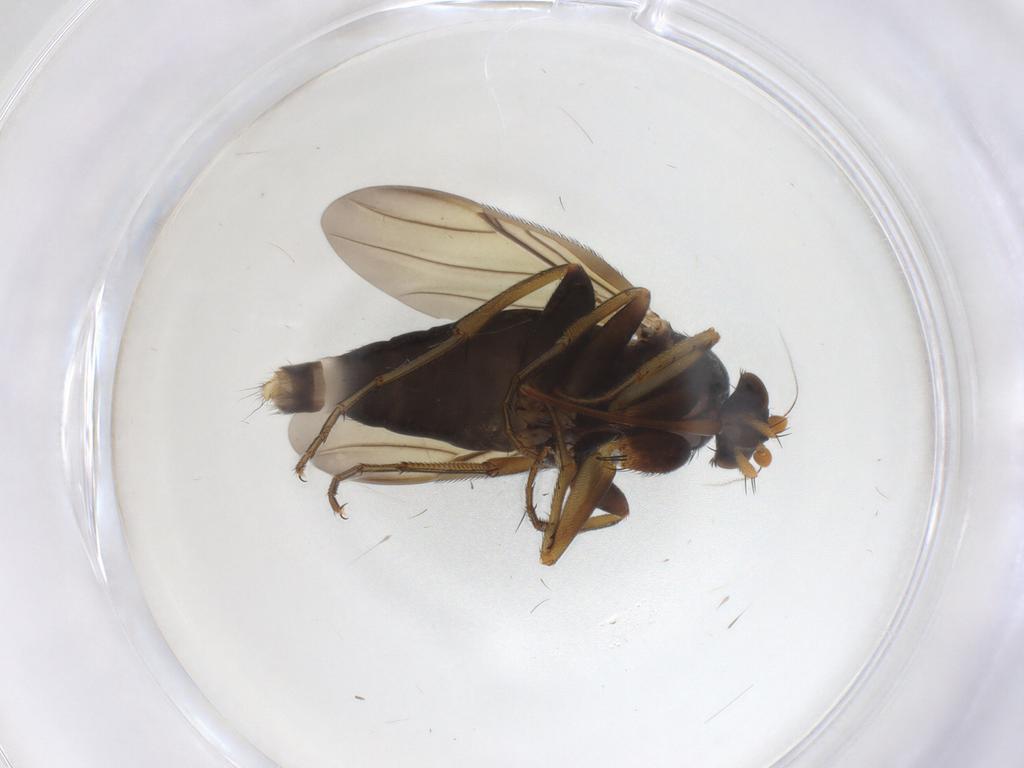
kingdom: Animalia
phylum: Arthropoda
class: Insecta
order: Diptera
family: Phoridae
